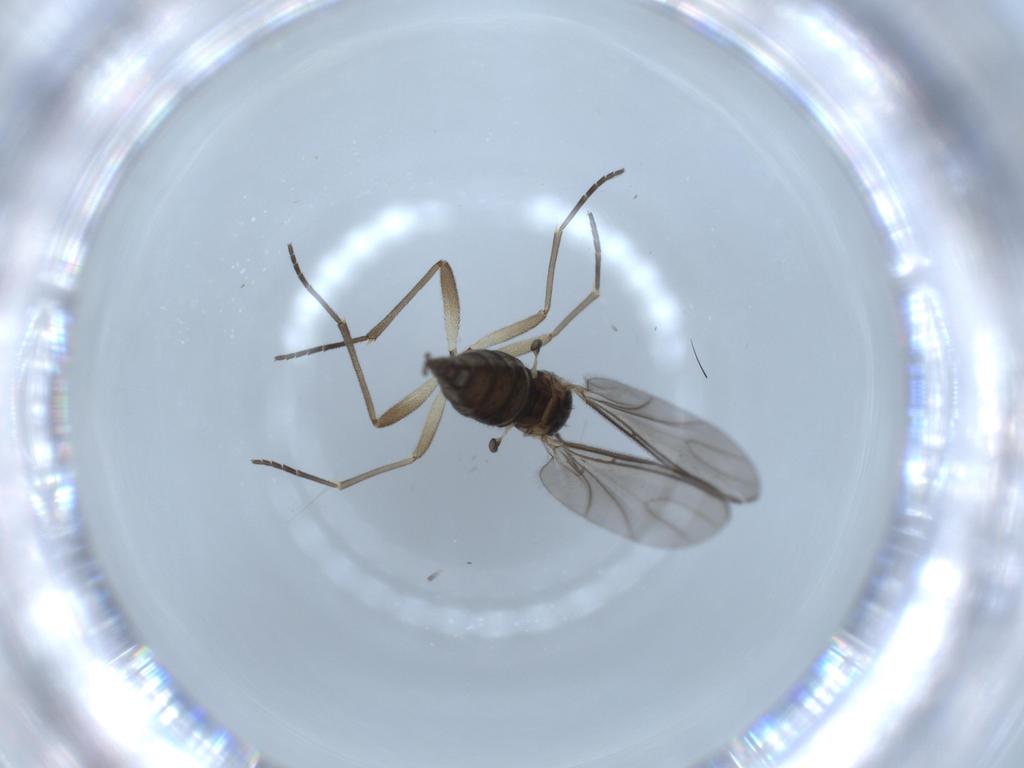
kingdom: Animalia
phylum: Arthropoda
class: Insecta
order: Diptera
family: Sciaridae
